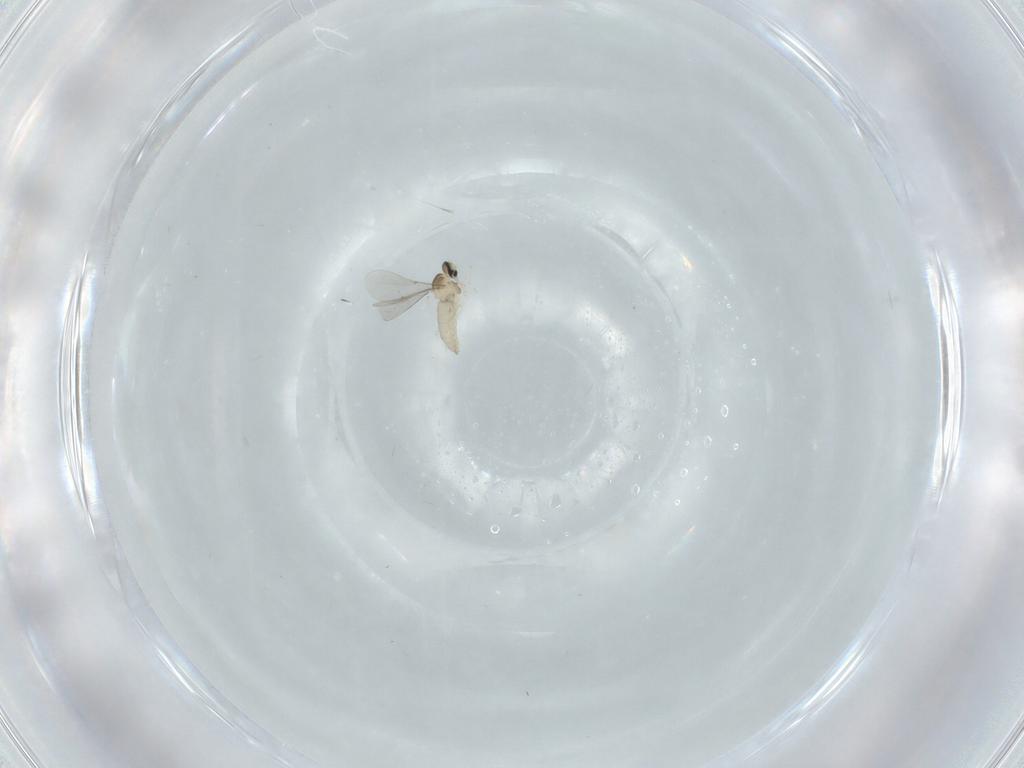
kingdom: Animalia
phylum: Arthropoda
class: Insecta
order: Diptera
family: Cecidomyiidae
